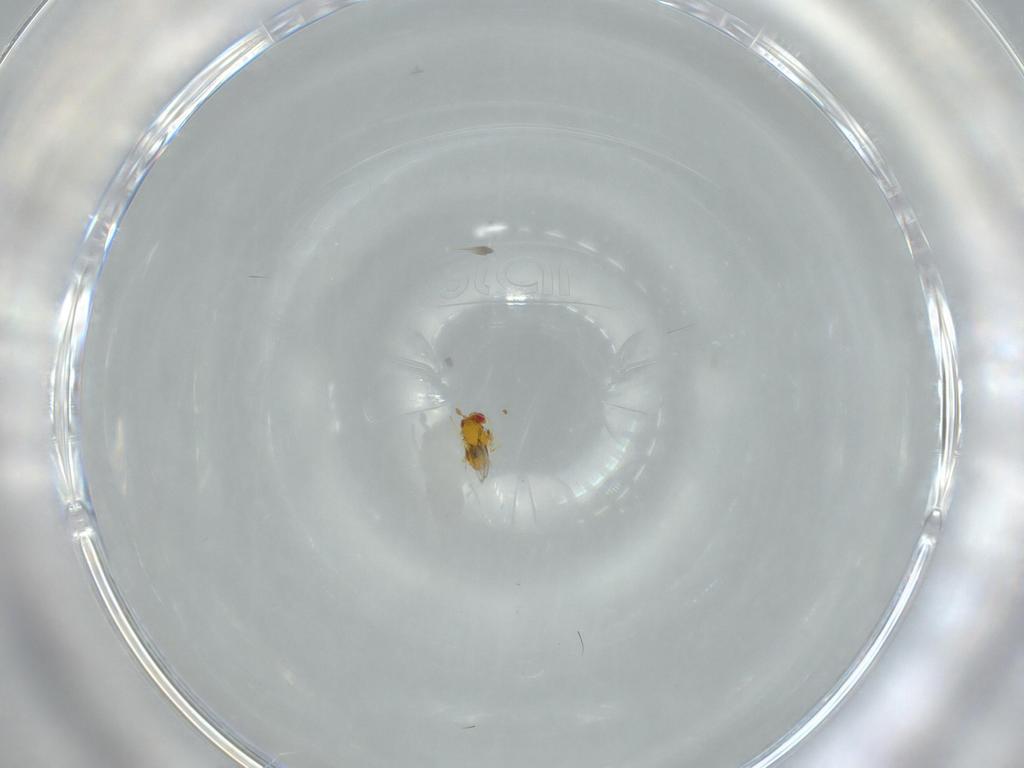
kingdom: Animalia
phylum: Arthropoda
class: Insecta
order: Hymenoptera
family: Trichogrammatidae
